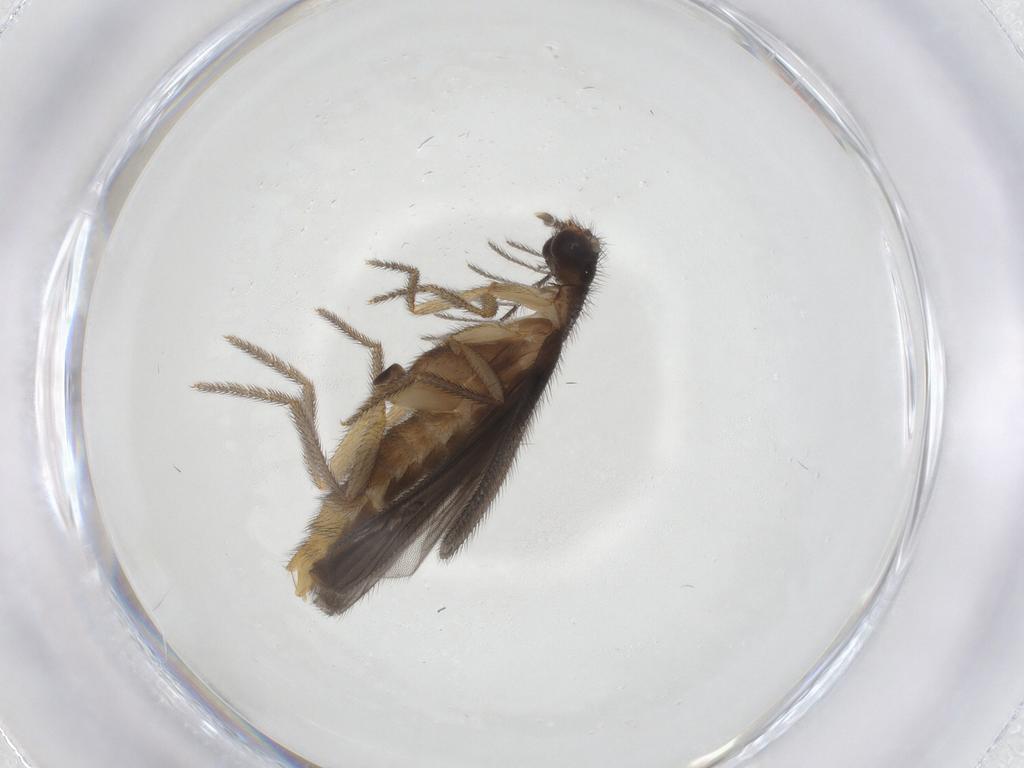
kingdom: Animalia
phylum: Arthropoda
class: Insecta
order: Coleoptera
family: Phengodidae
